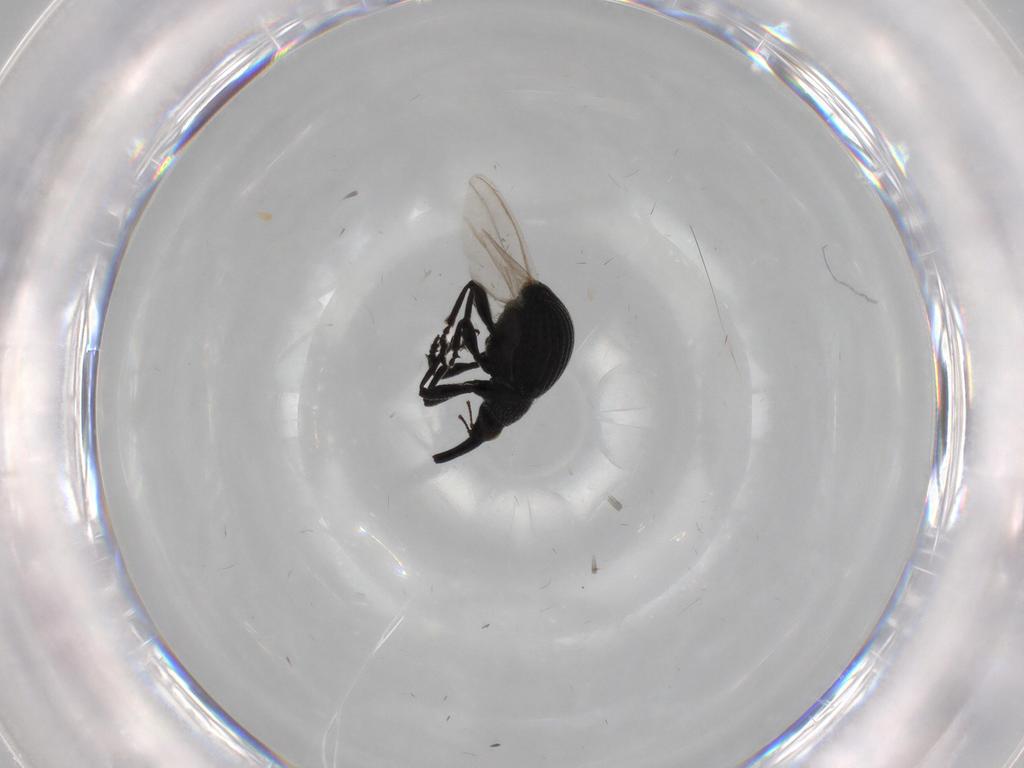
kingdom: Animalia
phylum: Arthropoda
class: Insecta
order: Coleoptera
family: Brentidae
